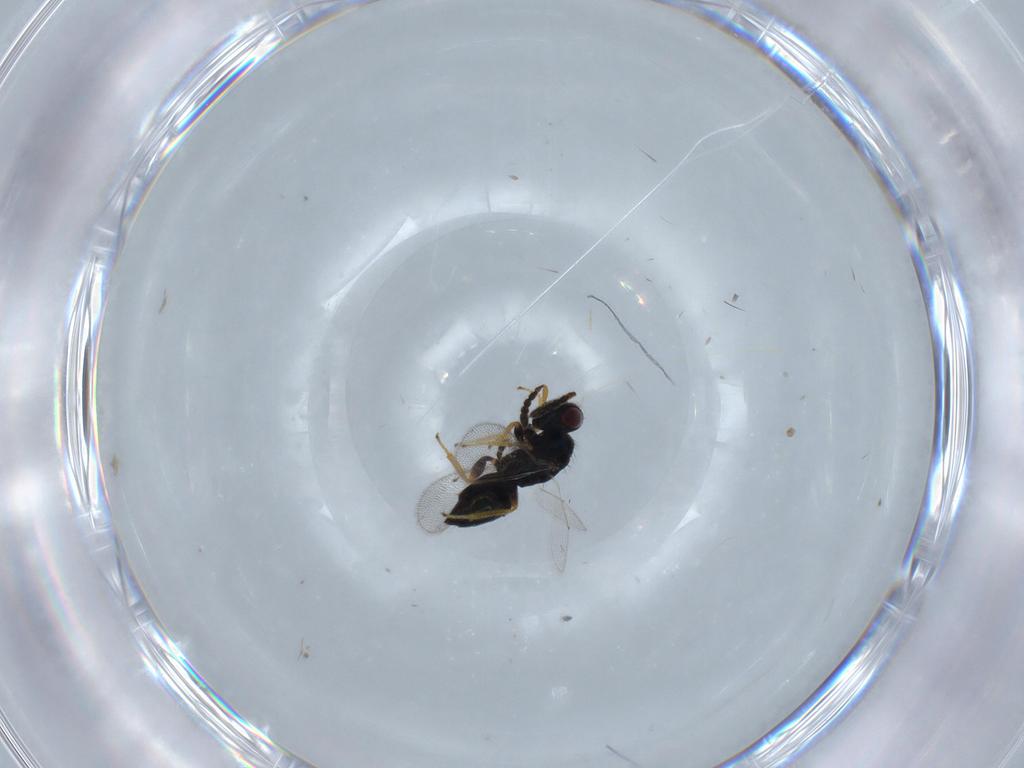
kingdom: Animalia
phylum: Arthropoda
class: Insecta
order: Hymenoptera
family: Eulophidae
